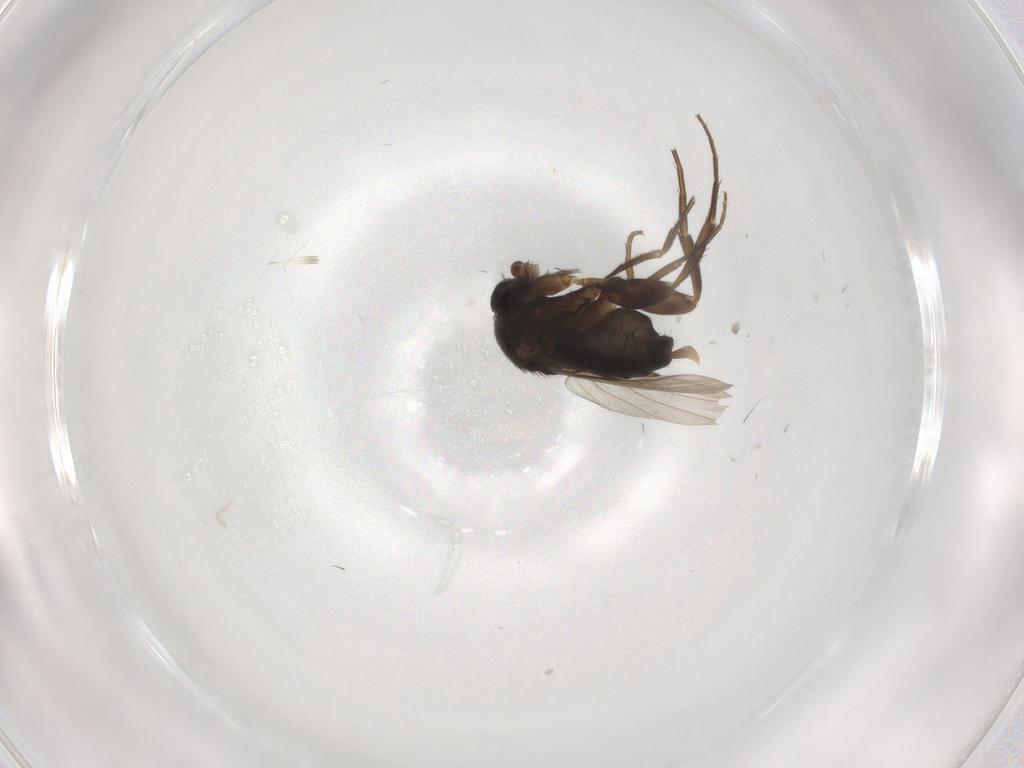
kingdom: Animalia
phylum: Arthropoda
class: Insecta
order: Diptera
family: Phoridae
